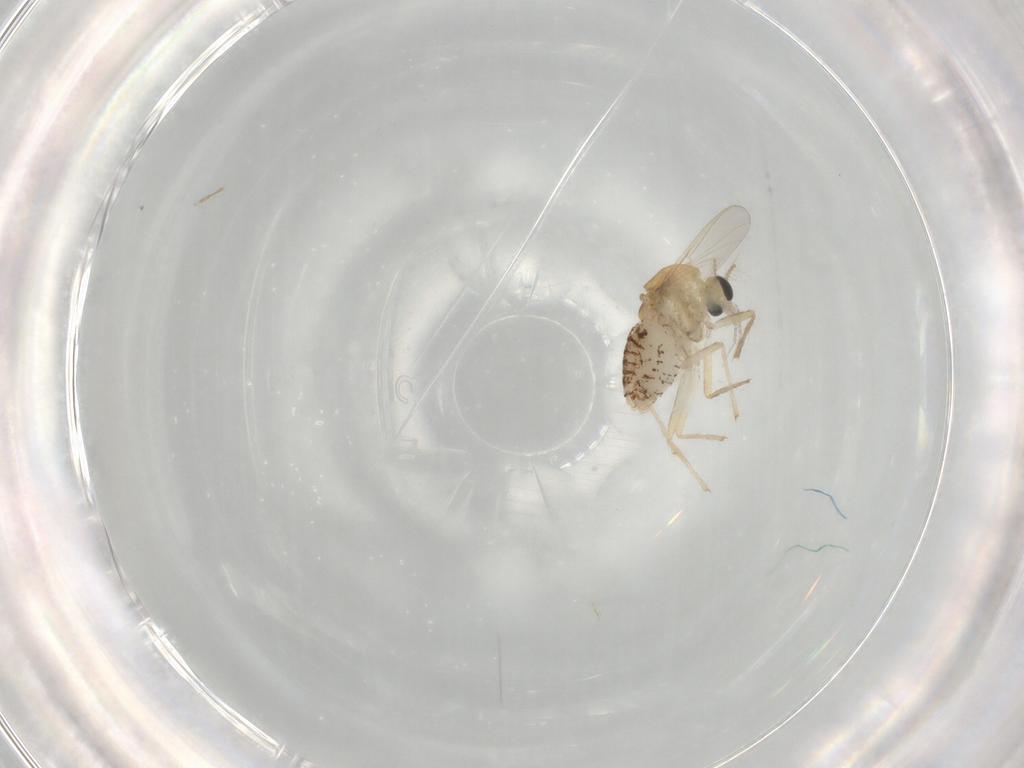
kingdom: Animalia
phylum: Arthropoda
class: Insecta
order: Diptera
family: Chironomidae
